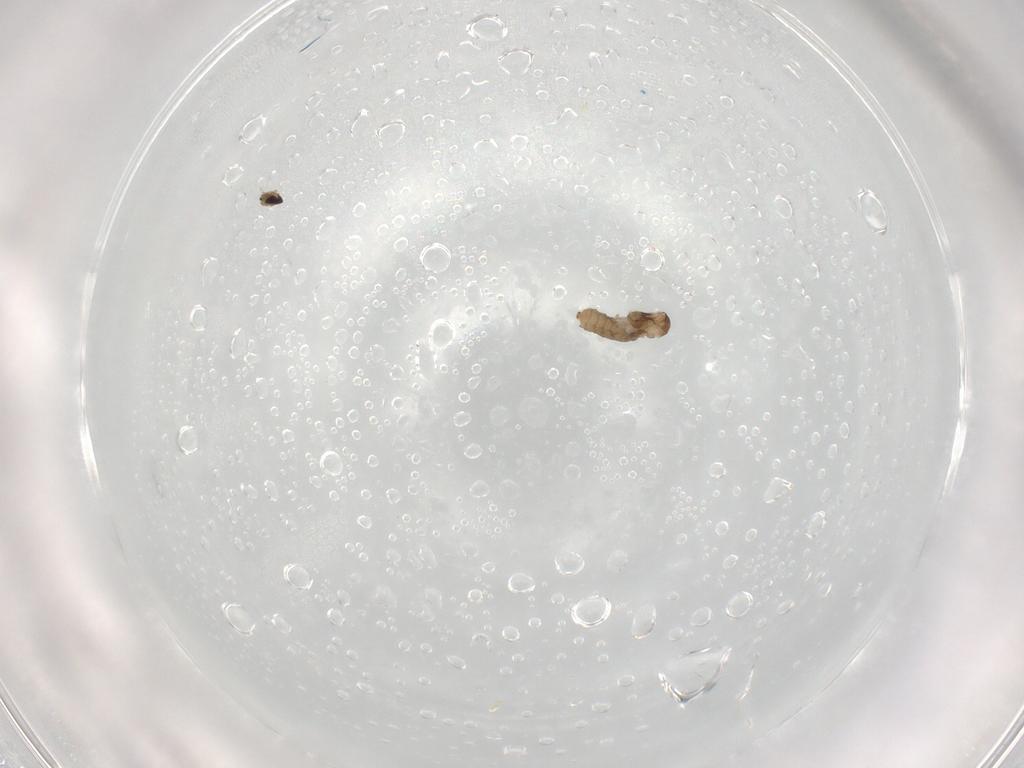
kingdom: Animalia
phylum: Arthropoda
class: Insecta
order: Diptera
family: Cecidomyiidae
